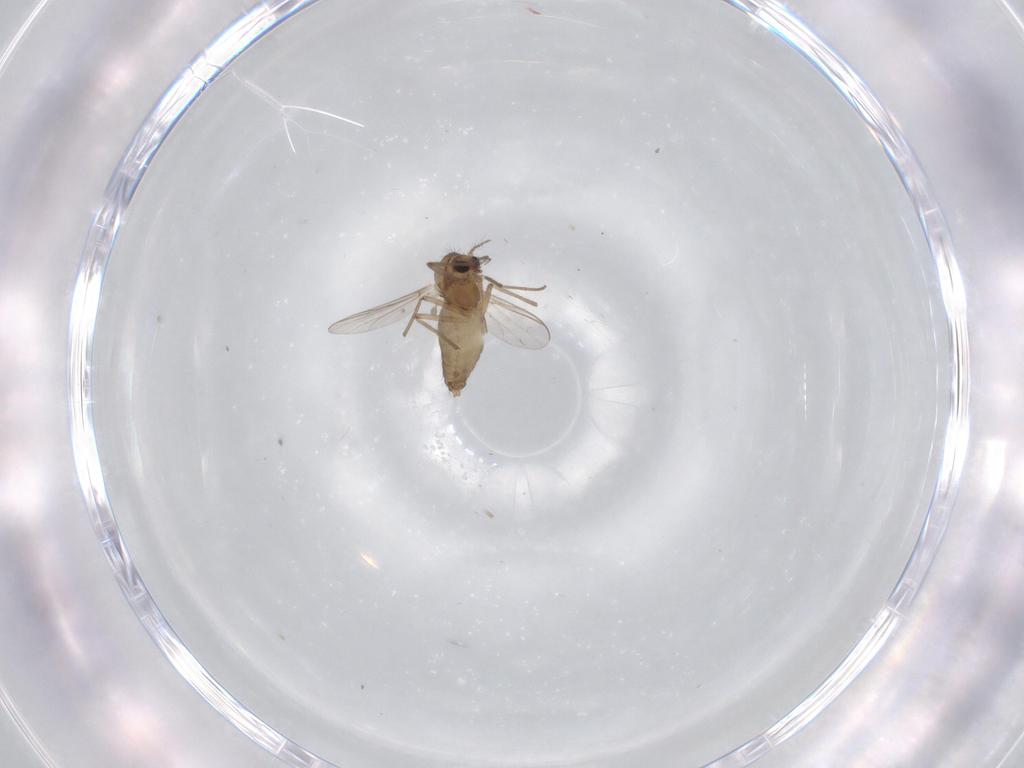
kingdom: Animalia
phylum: Arthropoda
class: Insecta
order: Diptera
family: Chironomidae
